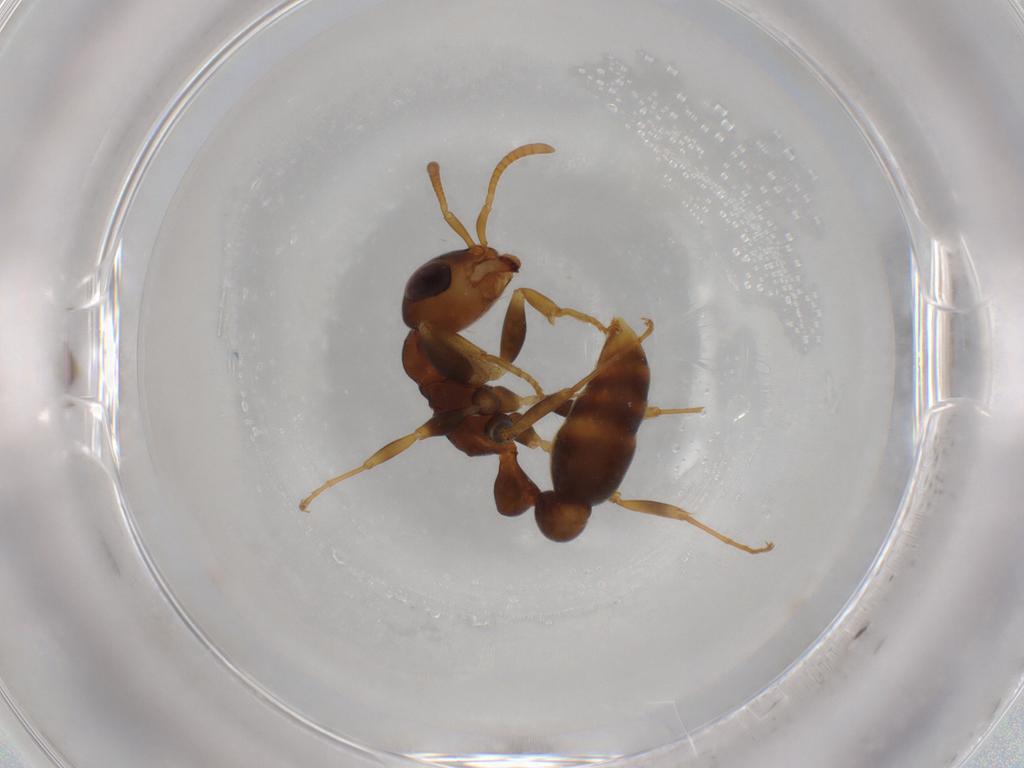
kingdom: Animalia
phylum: Arthropoda
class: Insecta
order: Hymenoptera
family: Formicidae
